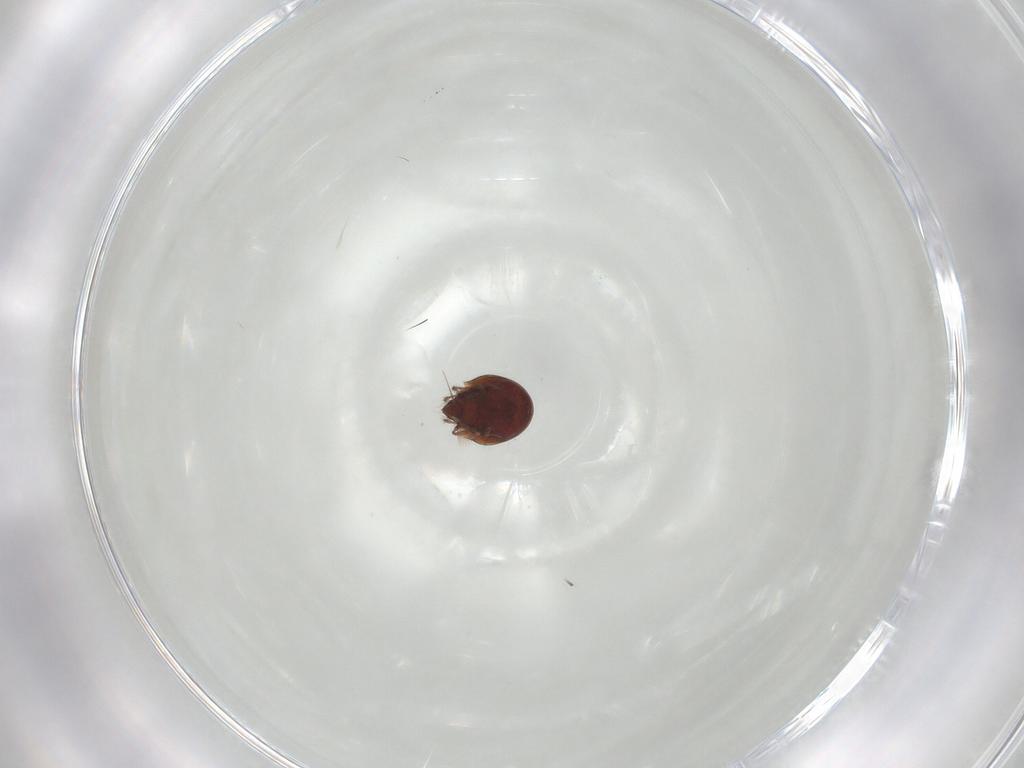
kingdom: Animalia
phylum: Arthropoda
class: Arachnida
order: Sarcoptiformes
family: Ceratozetidae
